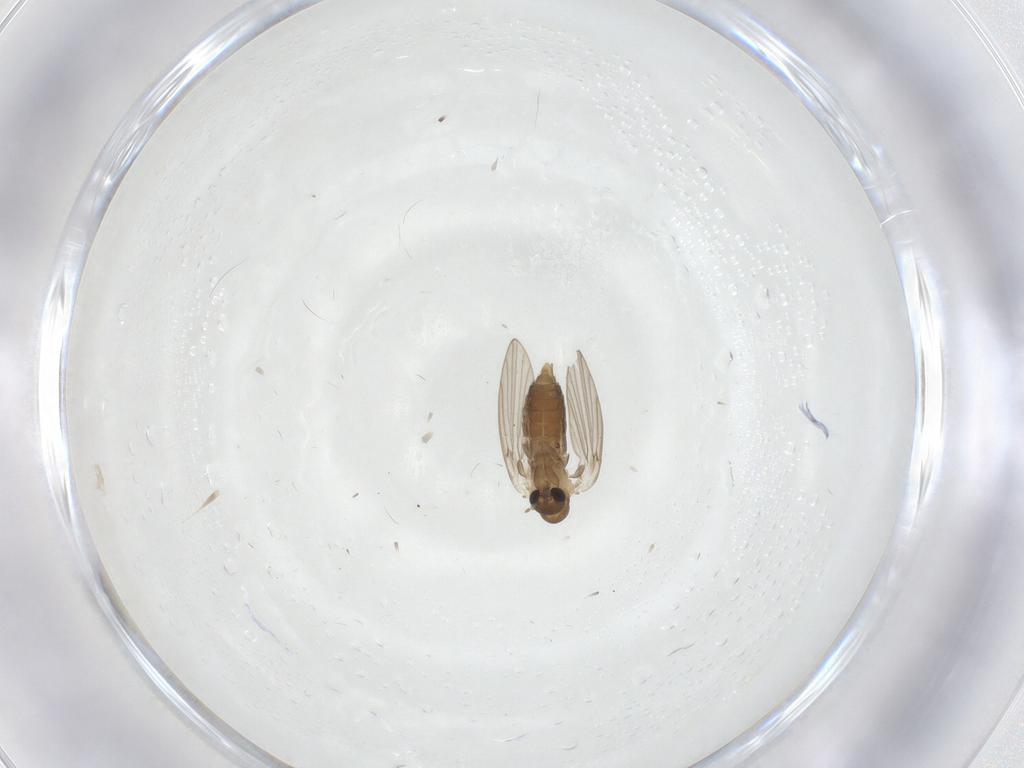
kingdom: Animalia
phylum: Arthropoda
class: Insecta
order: Diptera
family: Limoniidae
